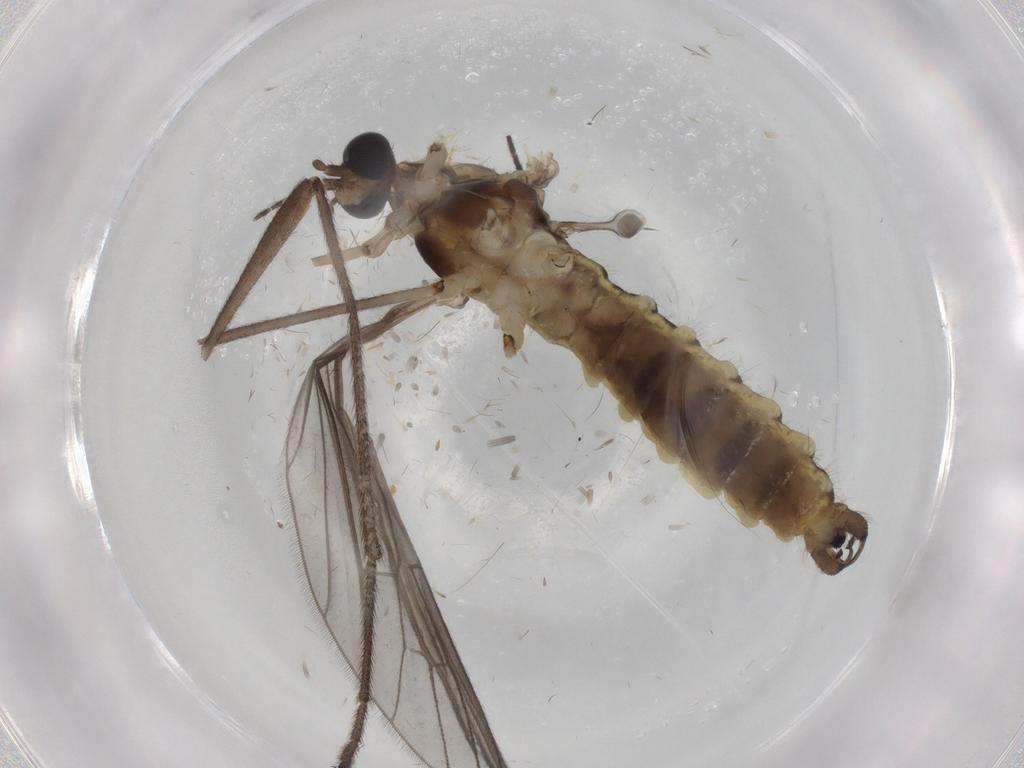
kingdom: Animalia
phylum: Arthropoda
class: Insecta
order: Diptera
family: Limoniidae
